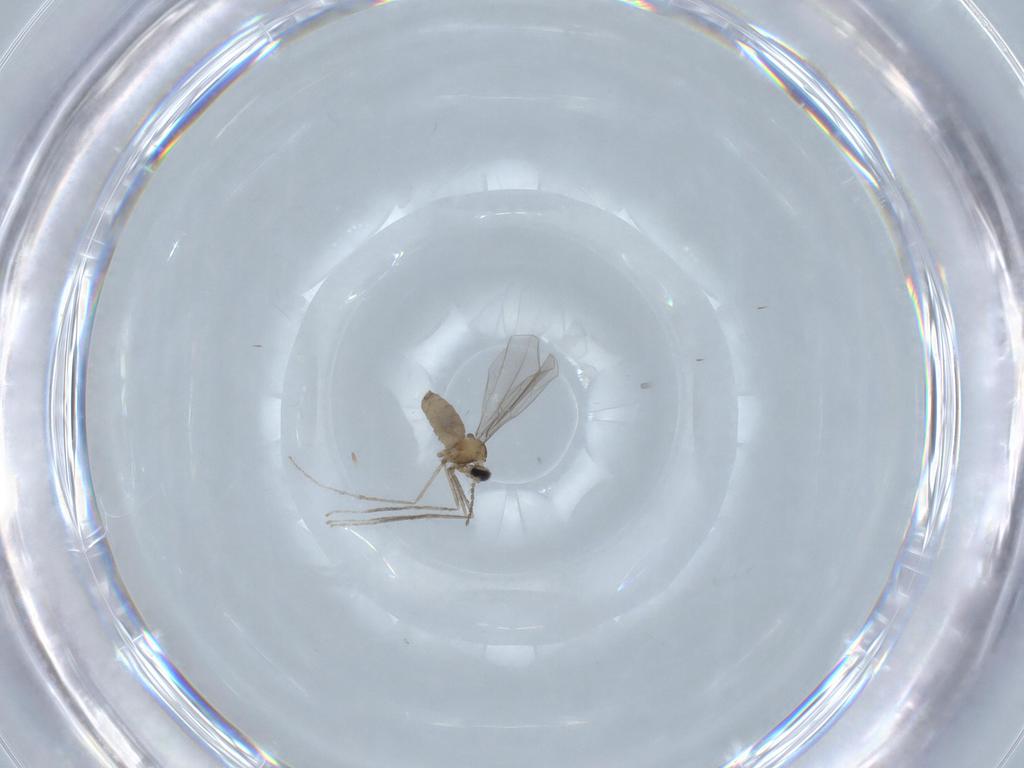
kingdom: Animalia
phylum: Arthropoda
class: Insecta
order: Diptera
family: Cecidomyiidae
